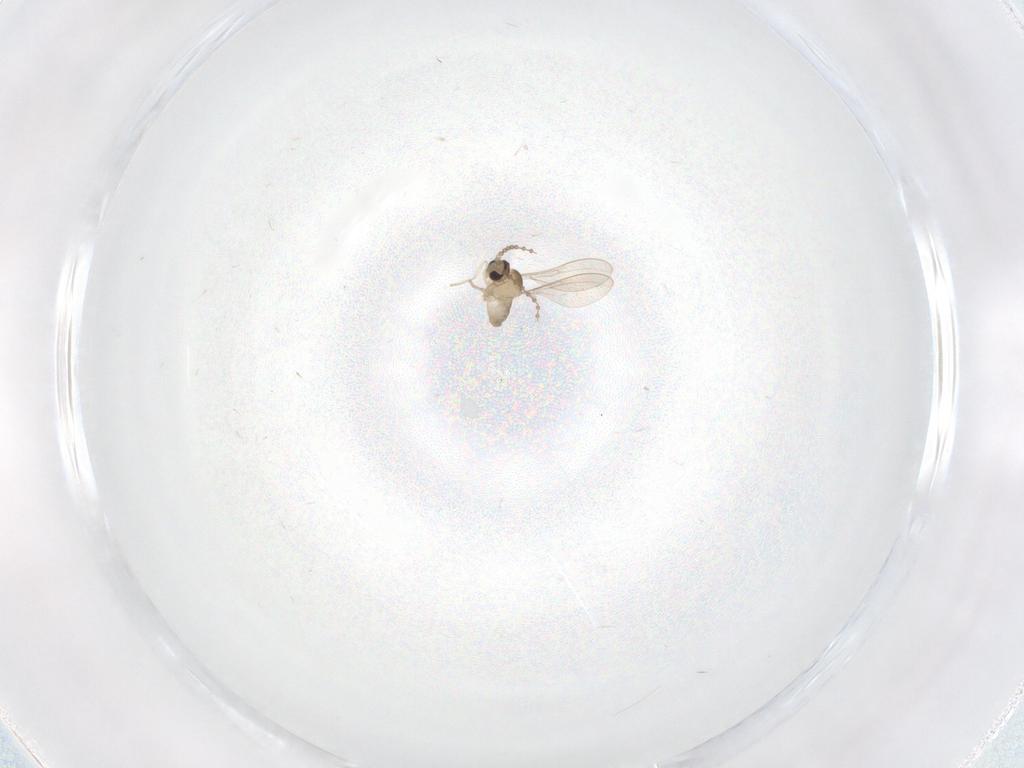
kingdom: Animalia
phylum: Arthropoda
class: Insecta
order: Diptera
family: Cecidomyiidae
